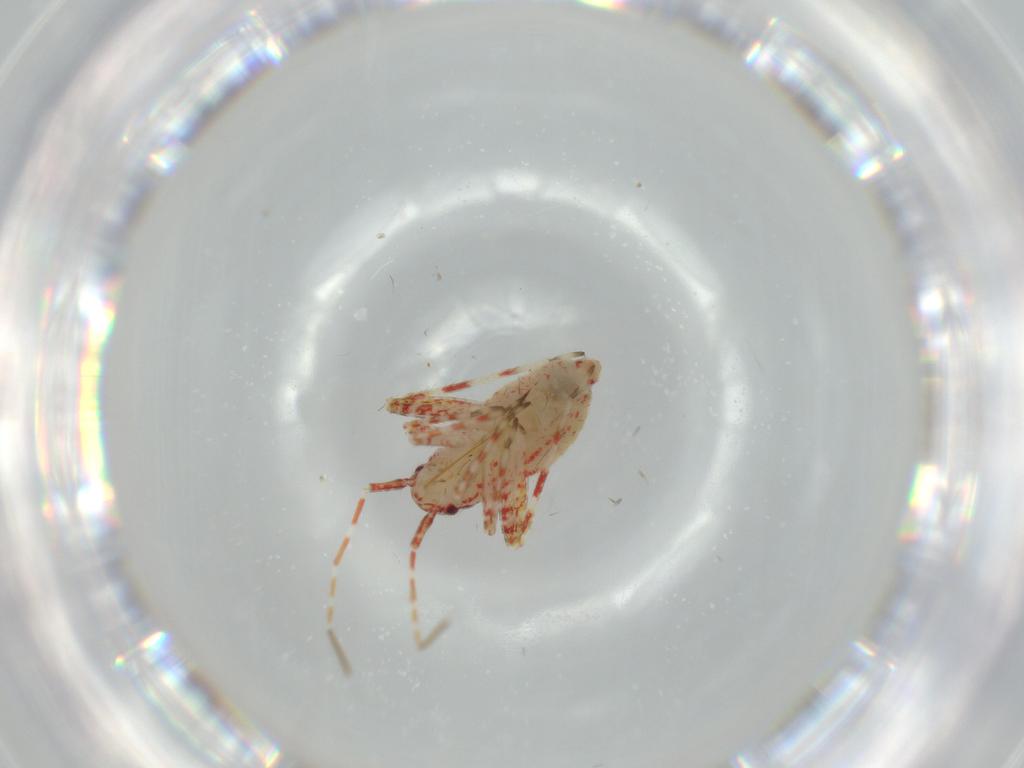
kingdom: Animalia
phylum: Arthropoda
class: Insecta
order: Hemiptera
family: Miridae
